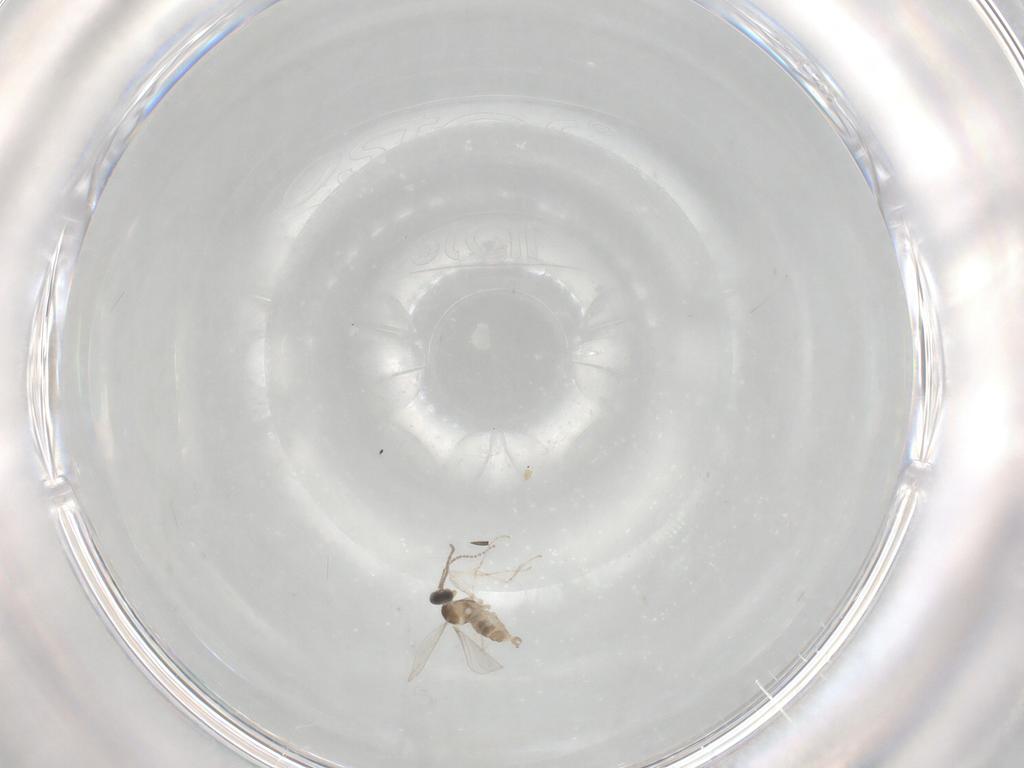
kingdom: Animalia
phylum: Arthropoda
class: Insecta
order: Diptera
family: Cecidomyiidae
